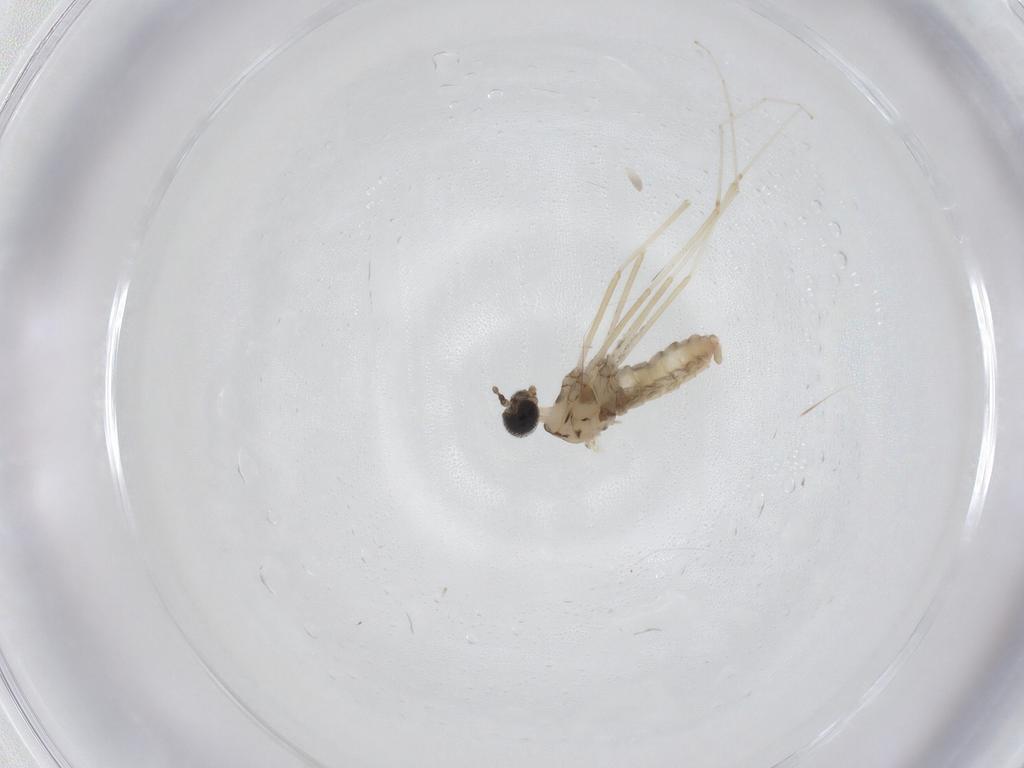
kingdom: Animalia
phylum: Arthropoda
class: Insecta
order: Diptera
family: Cecidomyiidae
